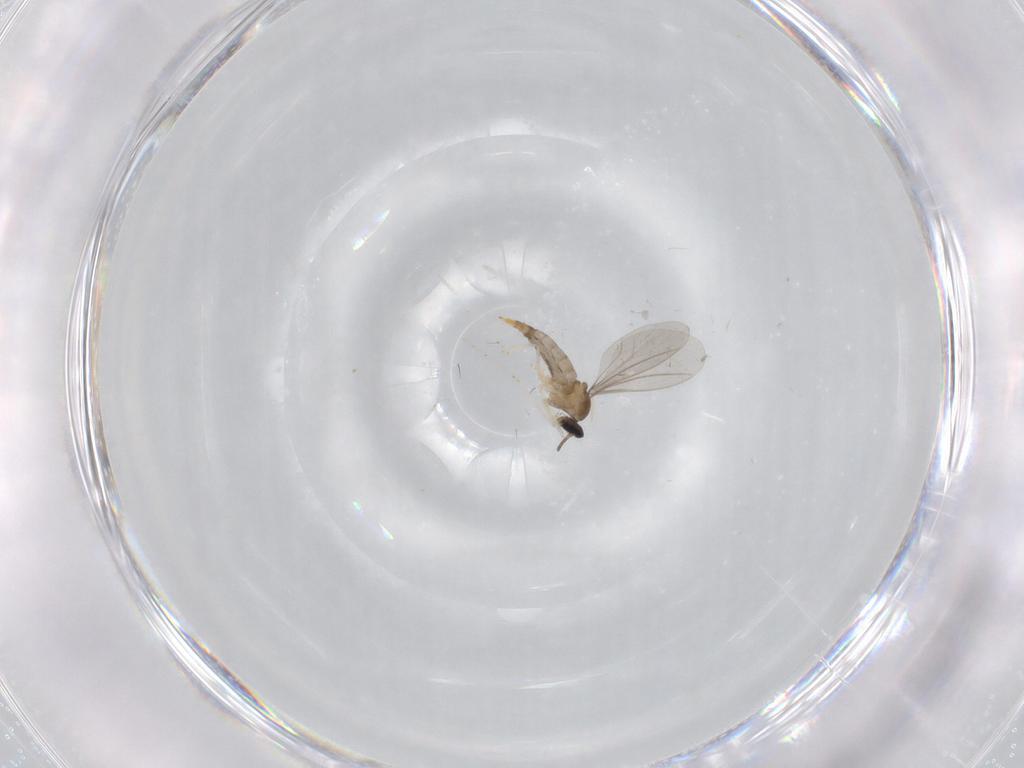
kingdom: Animalia
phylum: Arthropoda
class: Insecta
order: Diptera
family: Cecidomyiidae
